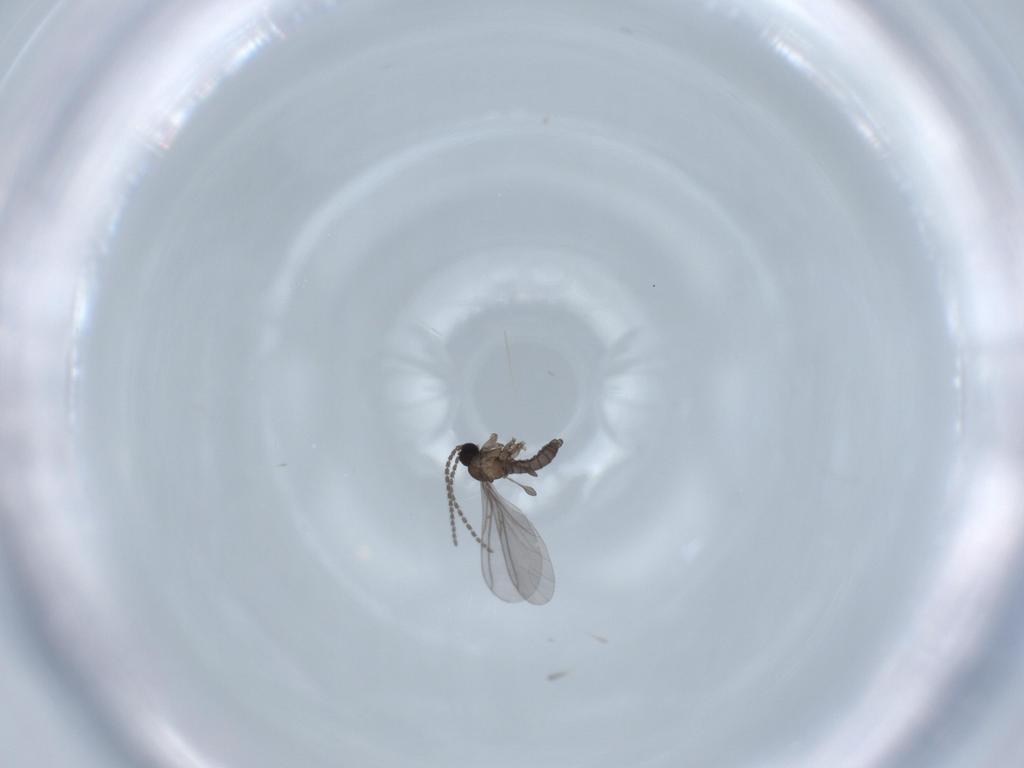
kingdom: Animalia
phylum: Arthropoda
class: Insecta
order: Diptera
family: Sciaridae
